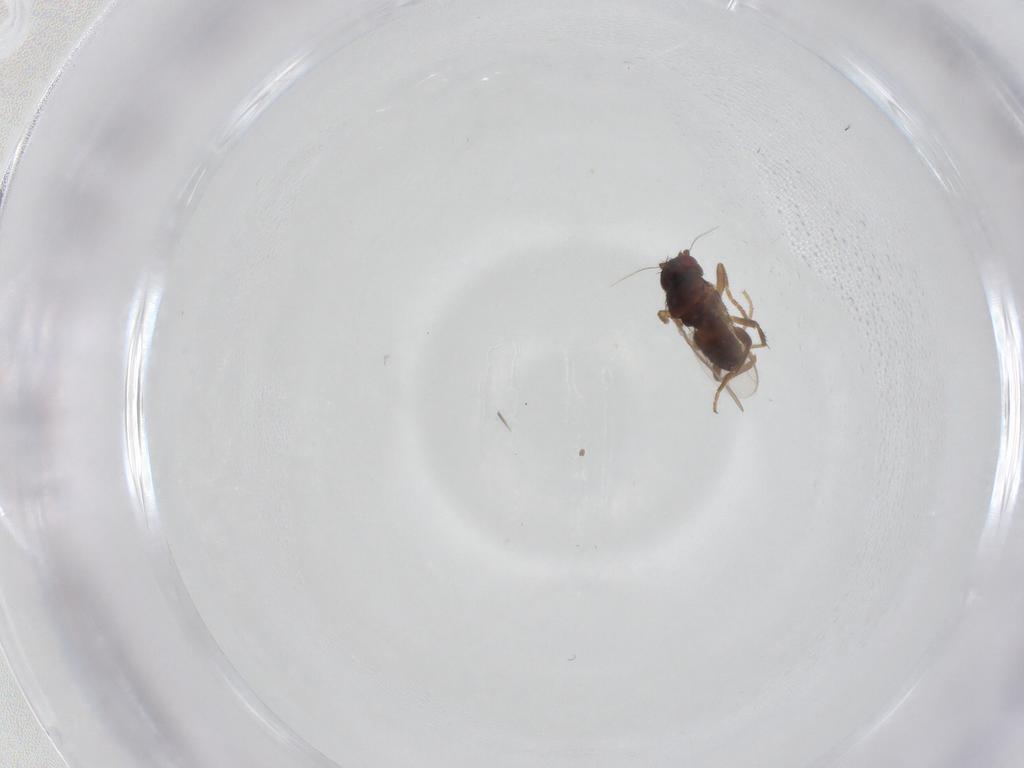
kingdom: Animalia
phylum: Arthropoda
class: Insecta
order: Diptera
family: Sphaeroceridae
